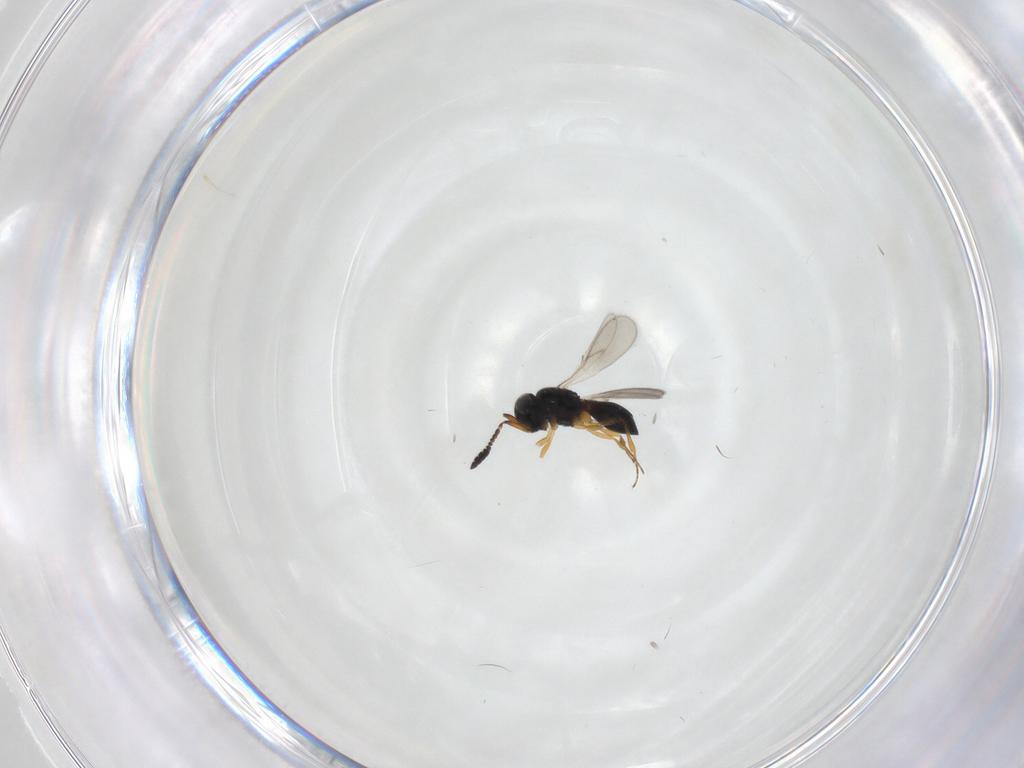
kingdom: Animalia
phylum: Arthropoda
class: Insecta
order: Hymenoptera
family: Scelionidae
